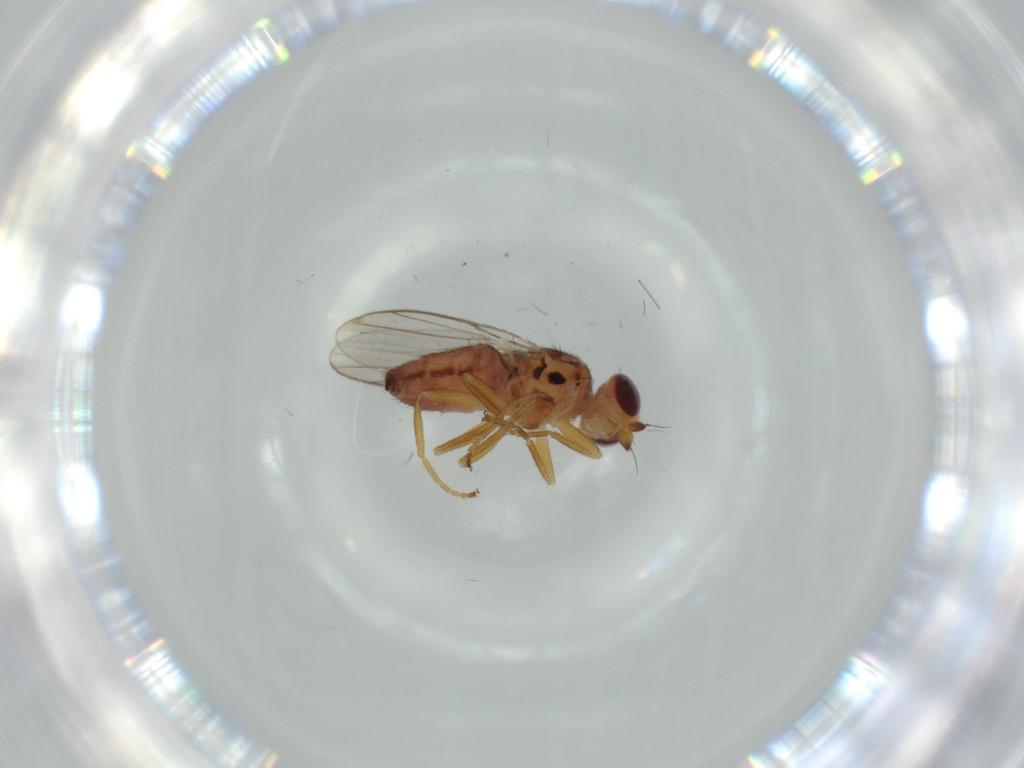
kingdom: Animalia
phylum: Arthropoda
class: Insecta
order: Diptera
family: Chloropidae
